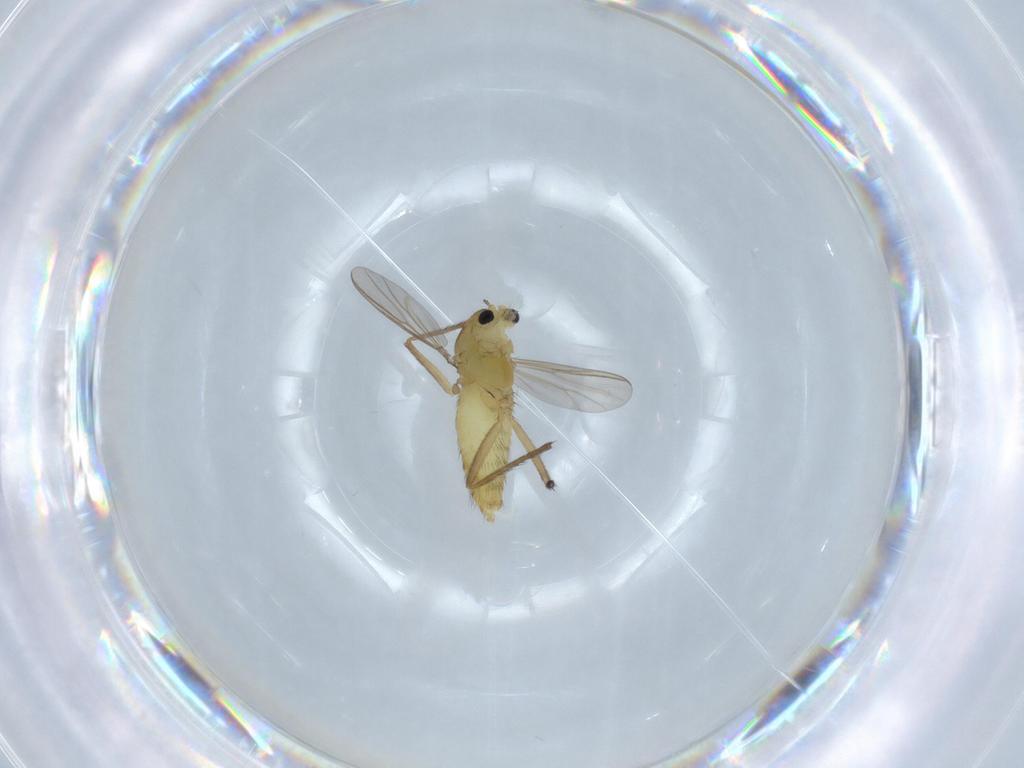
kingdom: Animalia
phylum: Arthropoda
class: Insecta
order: Diptera
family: Chironomidae
